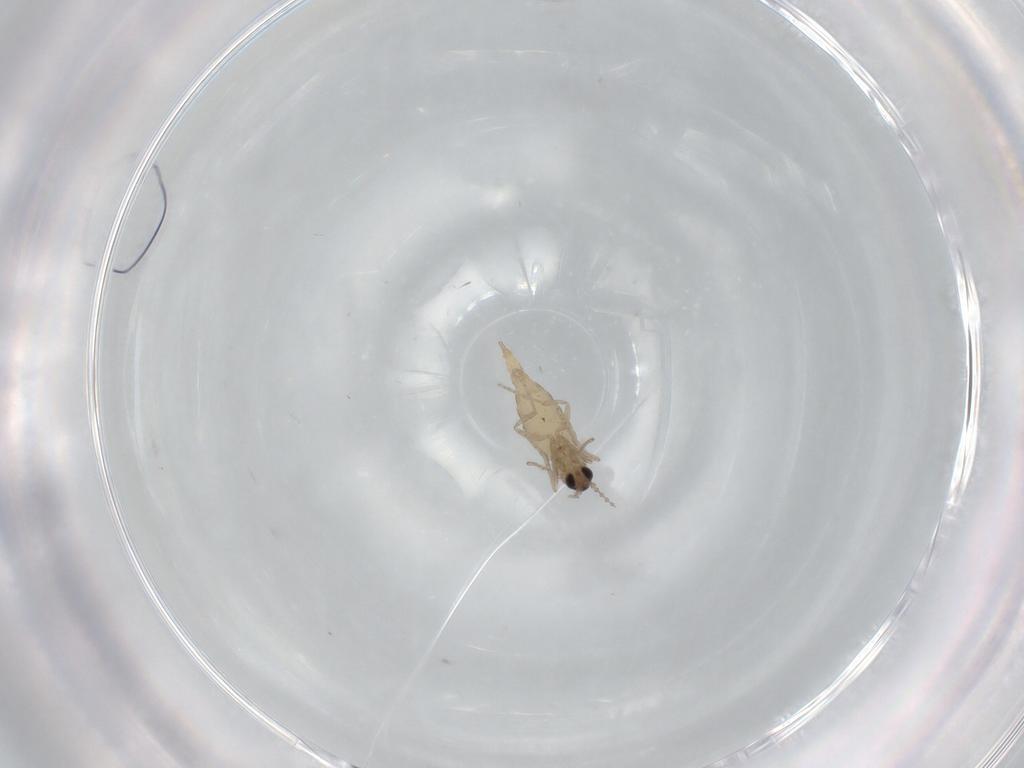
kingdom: Animalia
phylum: Arthropoda
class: Insecta
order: Diptera
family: Cecidomyiidae
